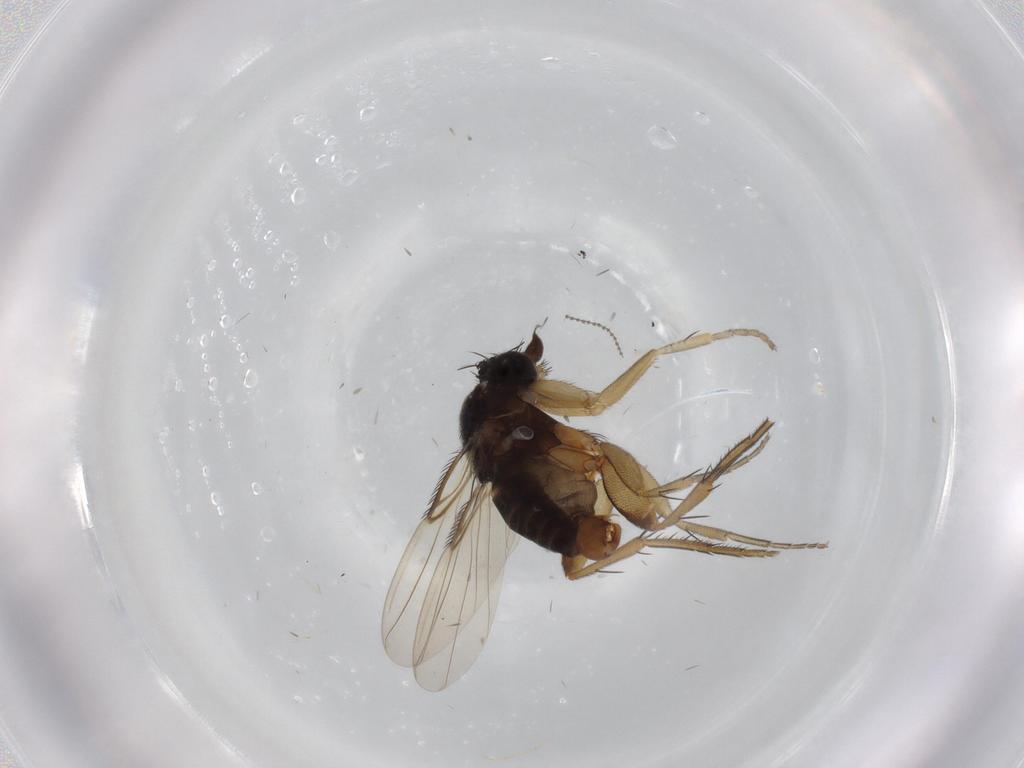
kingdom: Animalia
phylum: Arthropoda
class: Insecta
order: Diptera
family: Phoridae
